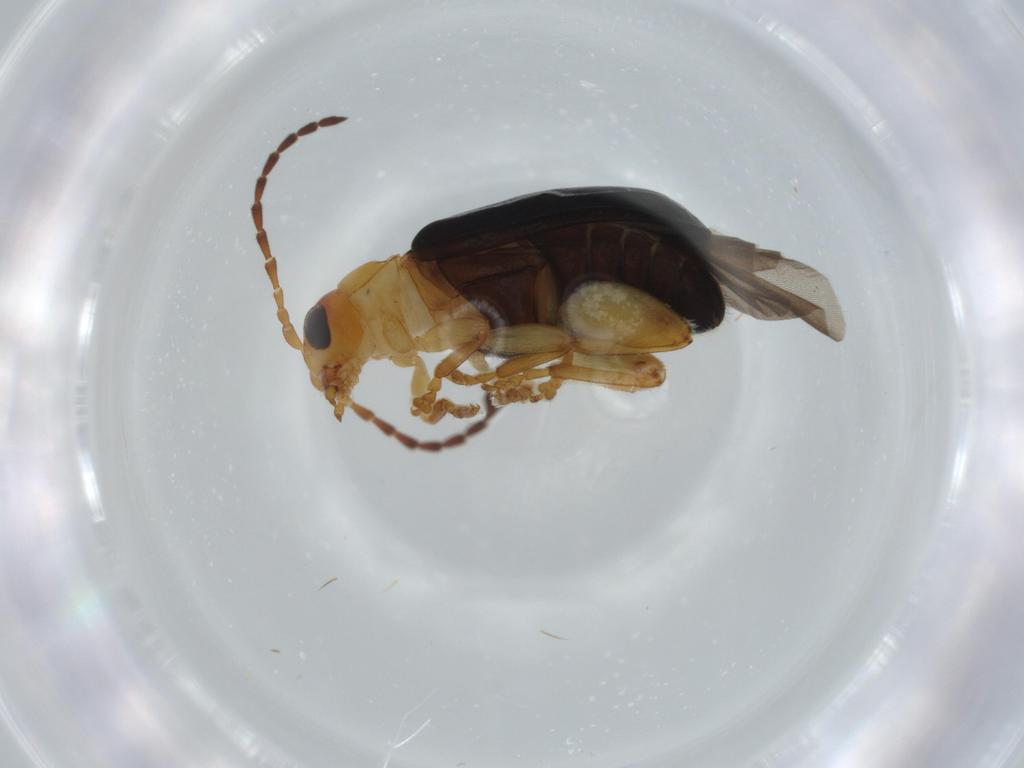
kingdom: Animalia
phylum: Arthropoda
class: Insecta
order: Coleoptera
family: Chrysomelidae
